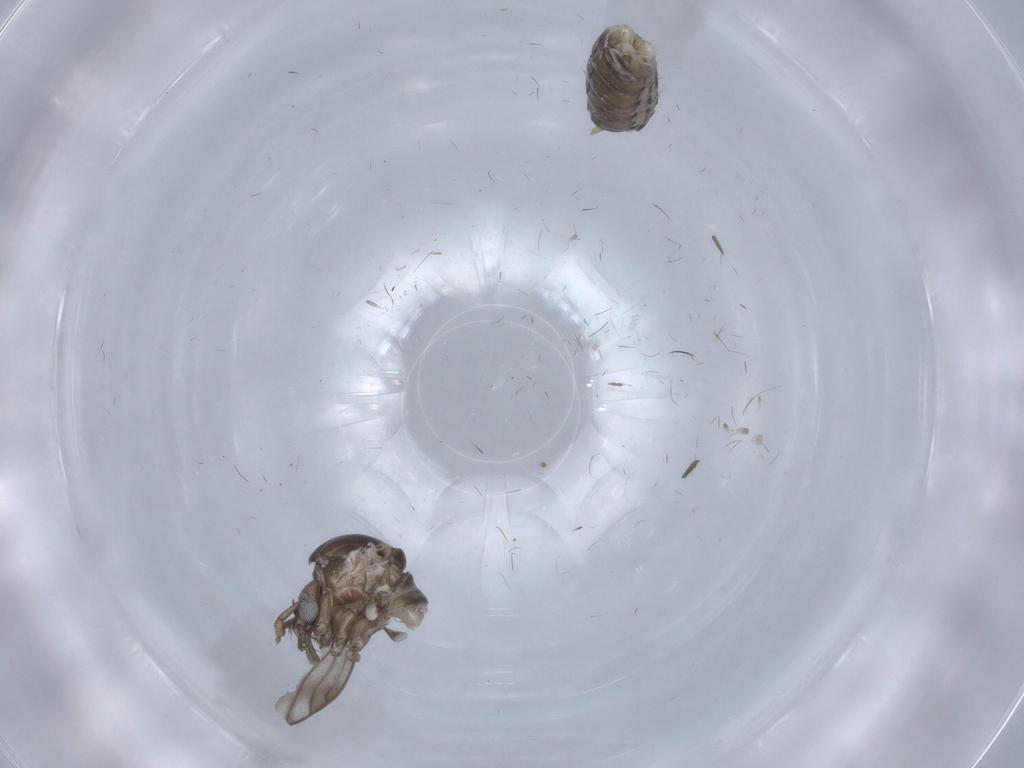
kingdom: Animalia
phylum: Arthropoda
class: Insecta
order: Diptera
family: Psychodidae
